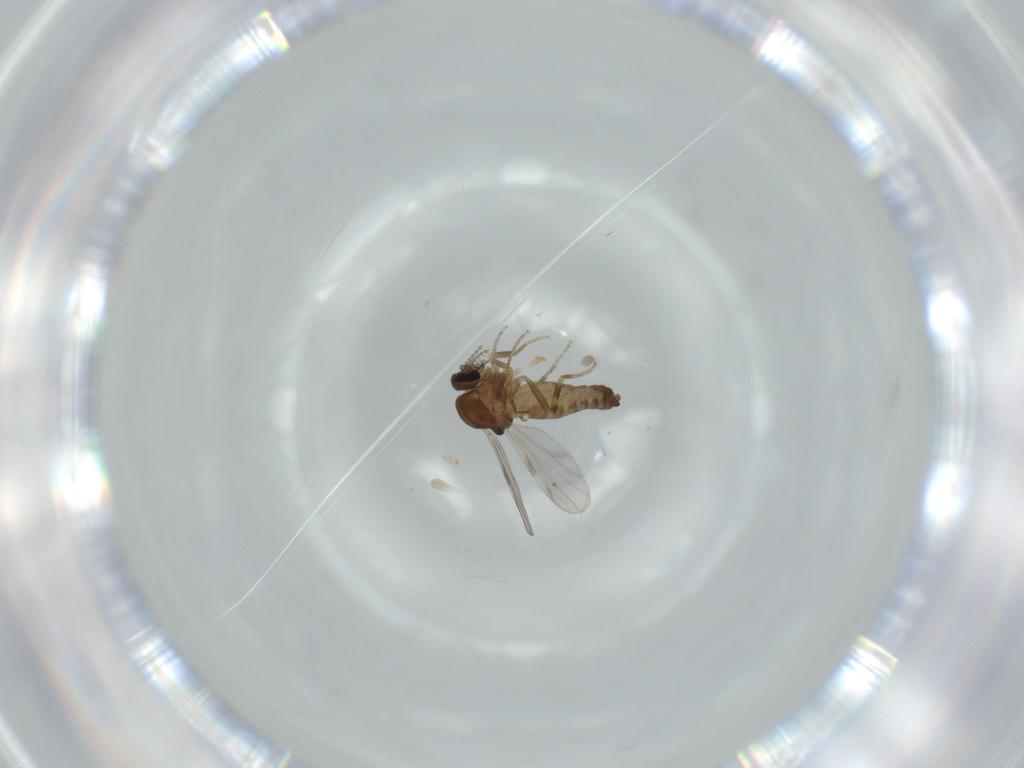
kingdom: Animalia
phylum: Arthropoda
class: Insecta
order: Diptera
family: Ceratopogonidae
